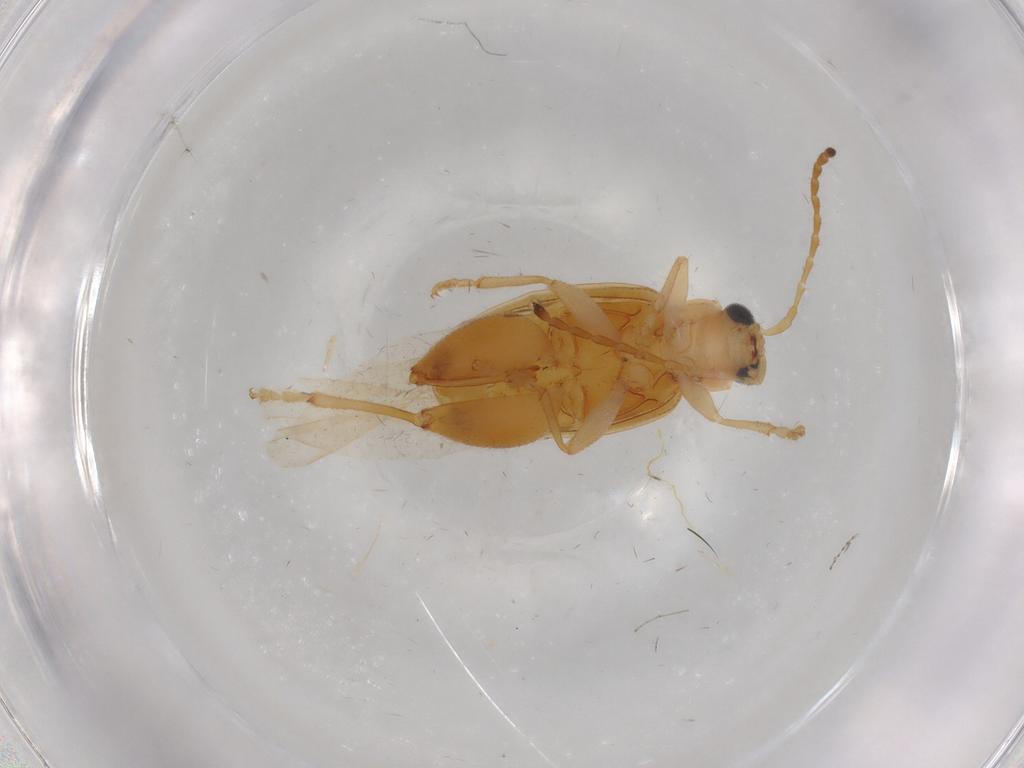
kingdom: Animalia
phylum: Arthropoda
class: Insecta
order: Coleoptera
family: Chrysomelidae
